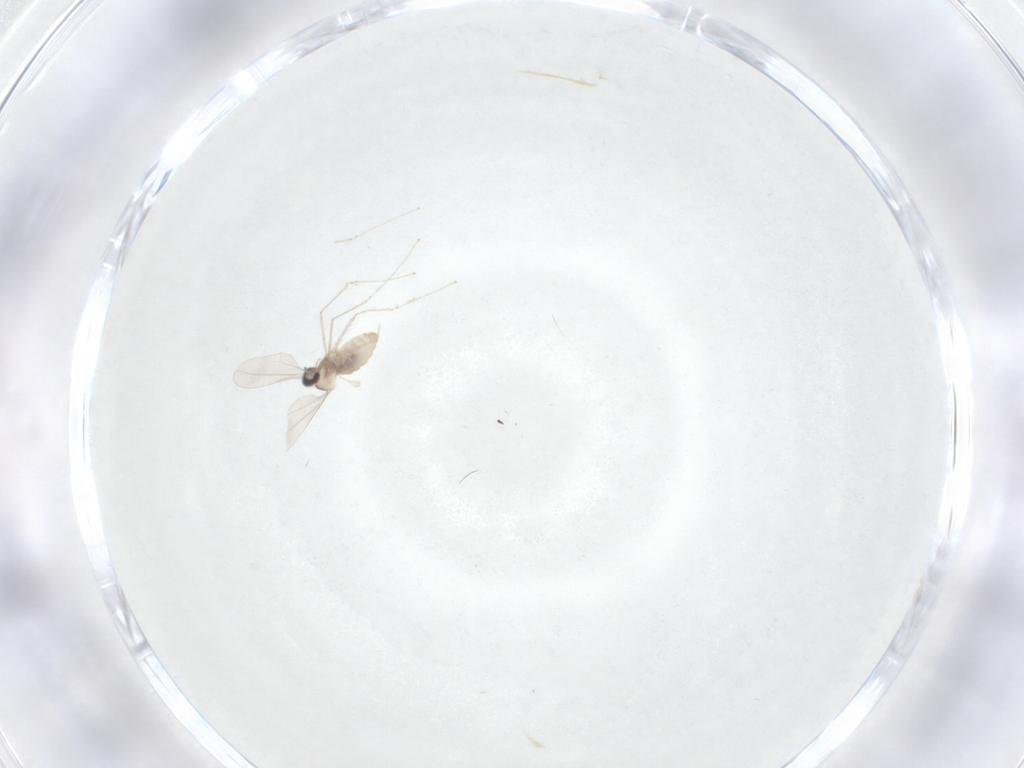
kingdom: Animalia
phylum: Arthropoda
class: Insecta
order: Diptera
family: Cecidomyiidae
